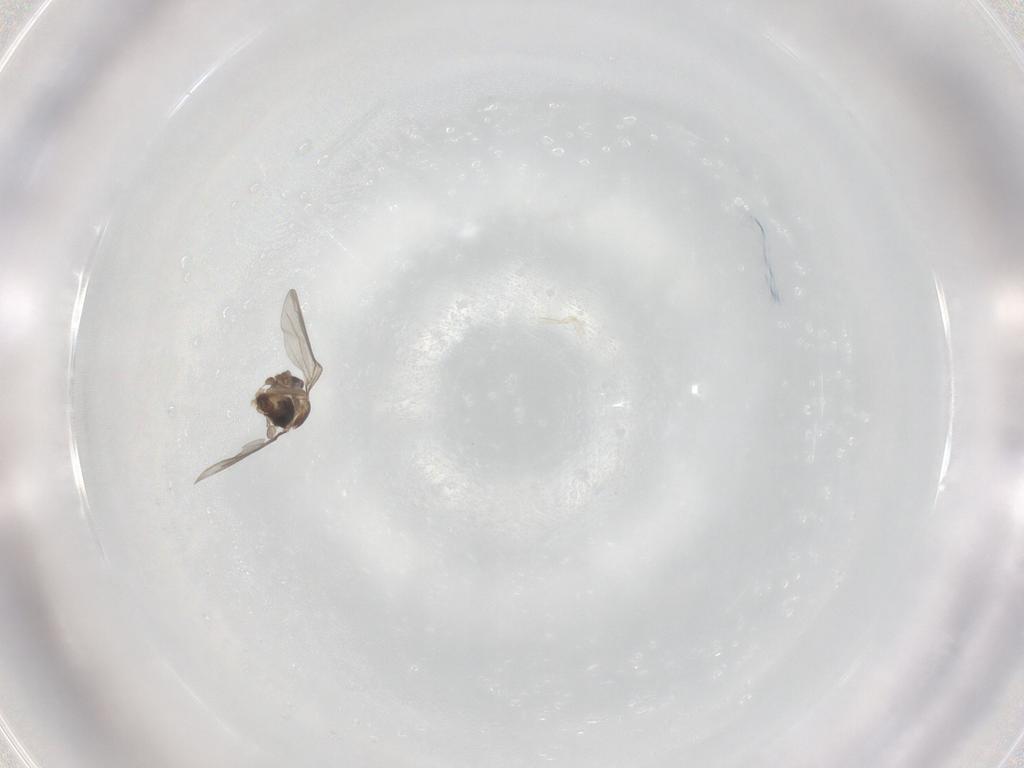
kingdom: Animalia
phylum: Arthropoda
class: Insecta
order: Diptera
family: Phoridae
